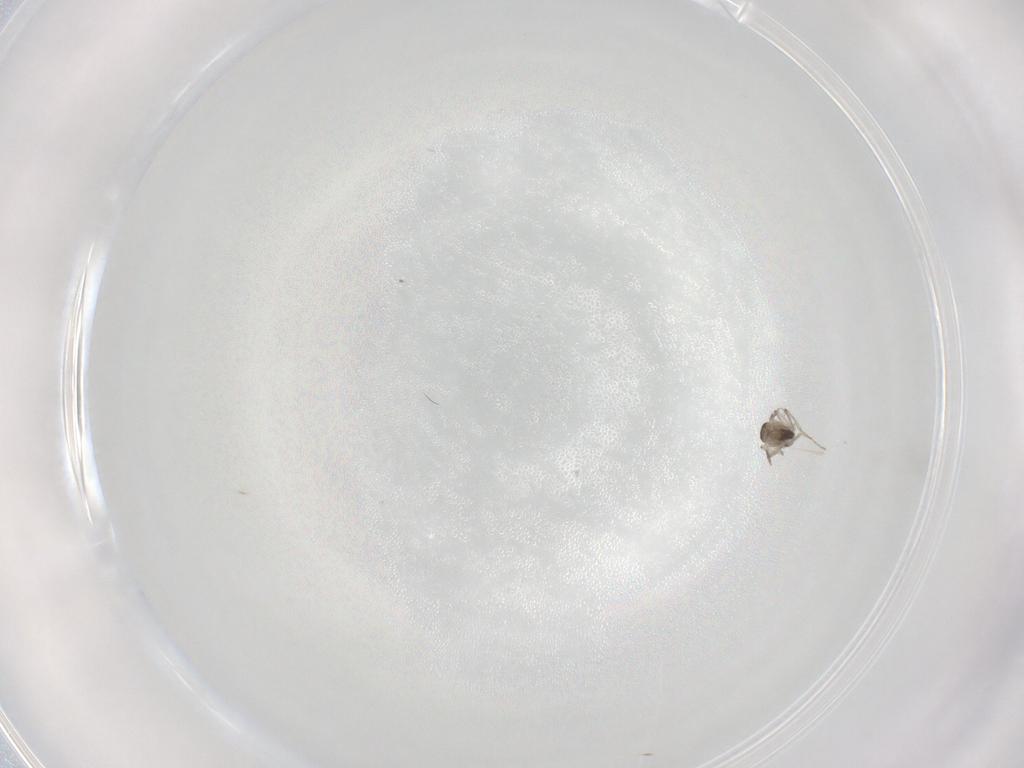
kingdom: Animalia
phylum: Arthropoda
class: Insecta
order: Diptera
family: Cecidomyiidae
